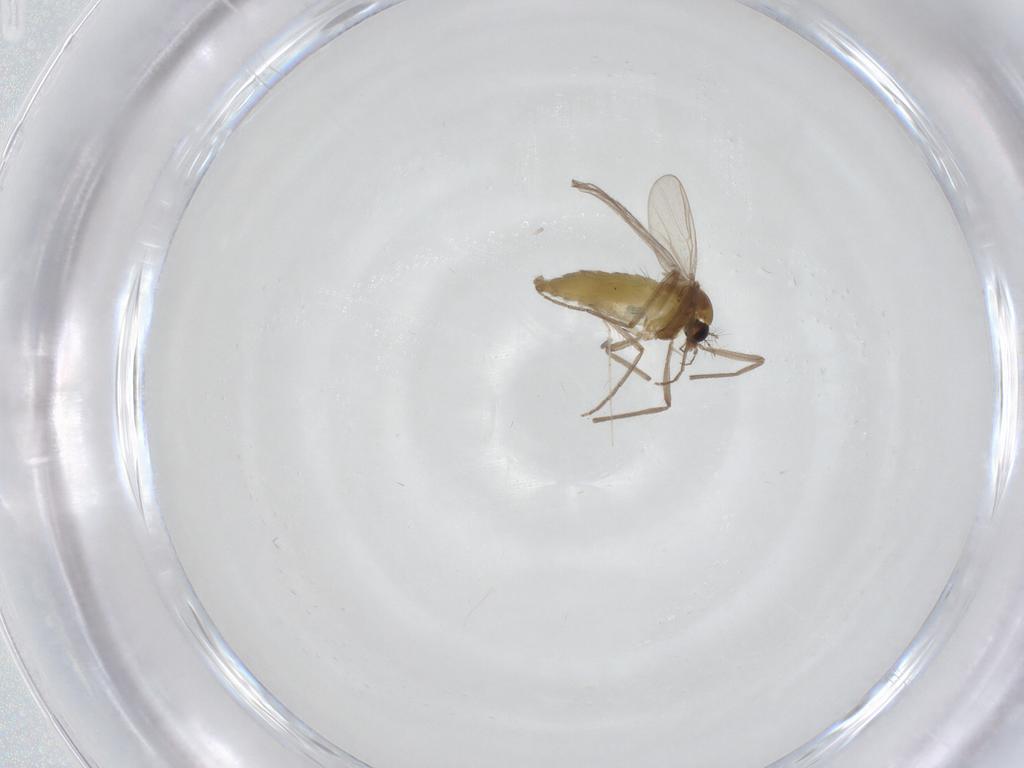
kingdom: Animalia
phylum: Arthropoda
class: Insecta
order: Diptera
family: Chironomidae
